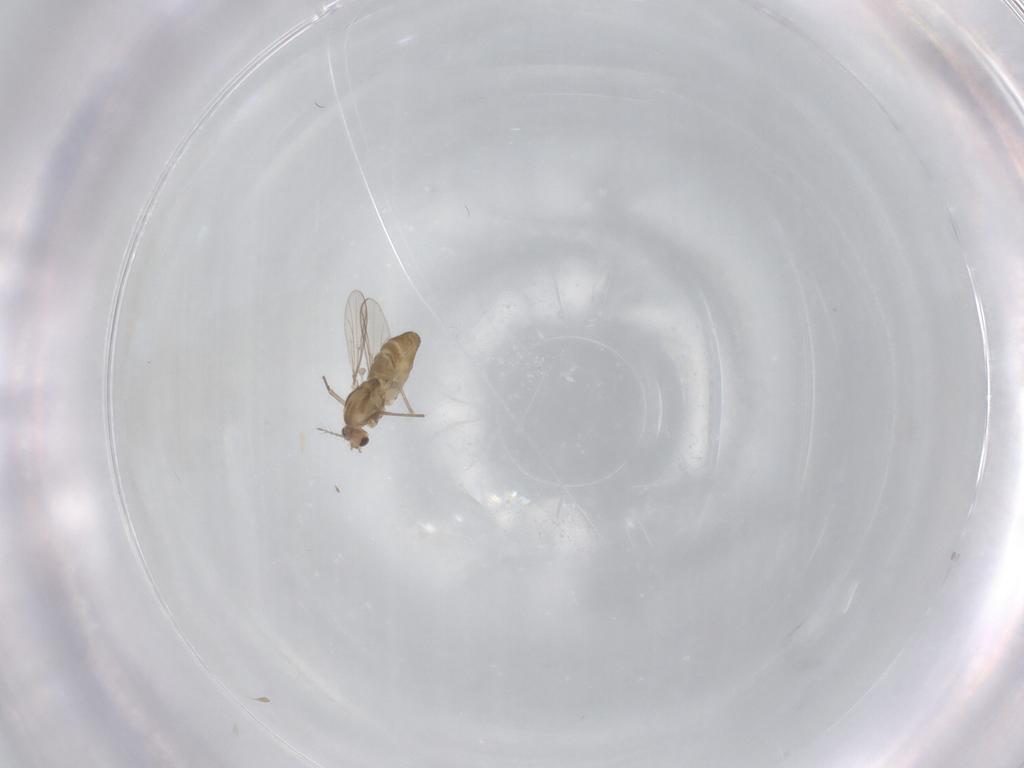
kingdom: Animalia
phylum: Arthropoda
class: Insecta
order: Diptera
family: Chironomidae
